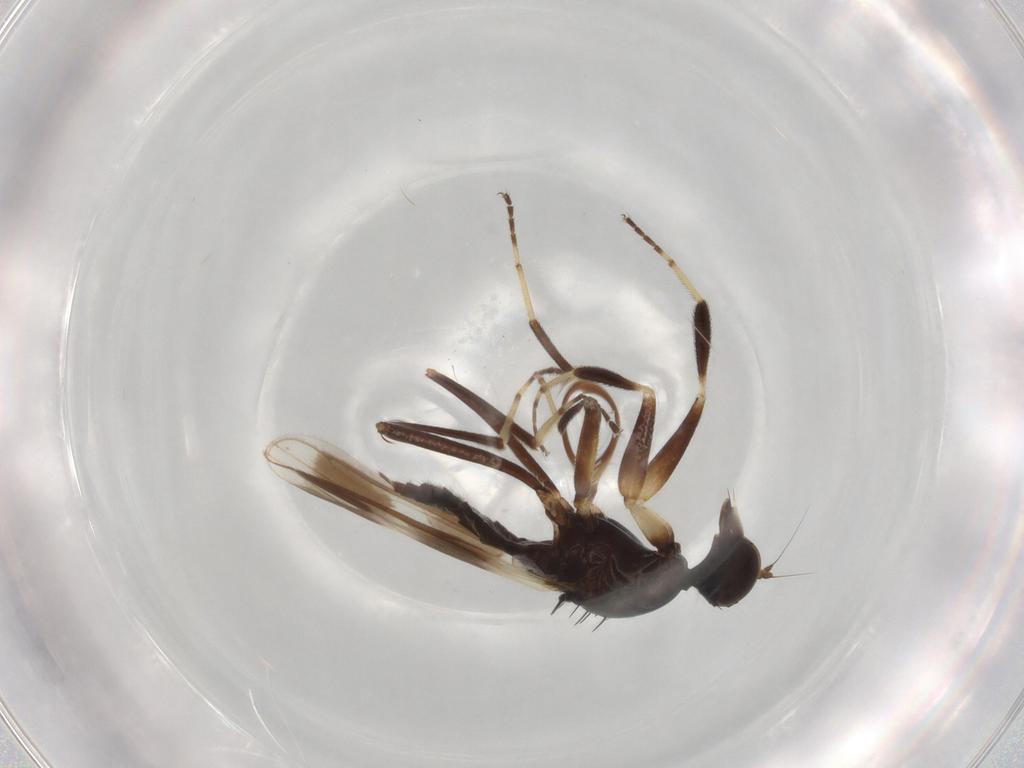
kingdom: Animalia
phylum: Arthropoda
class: Insecta
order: Diptera
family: Hybotidae
